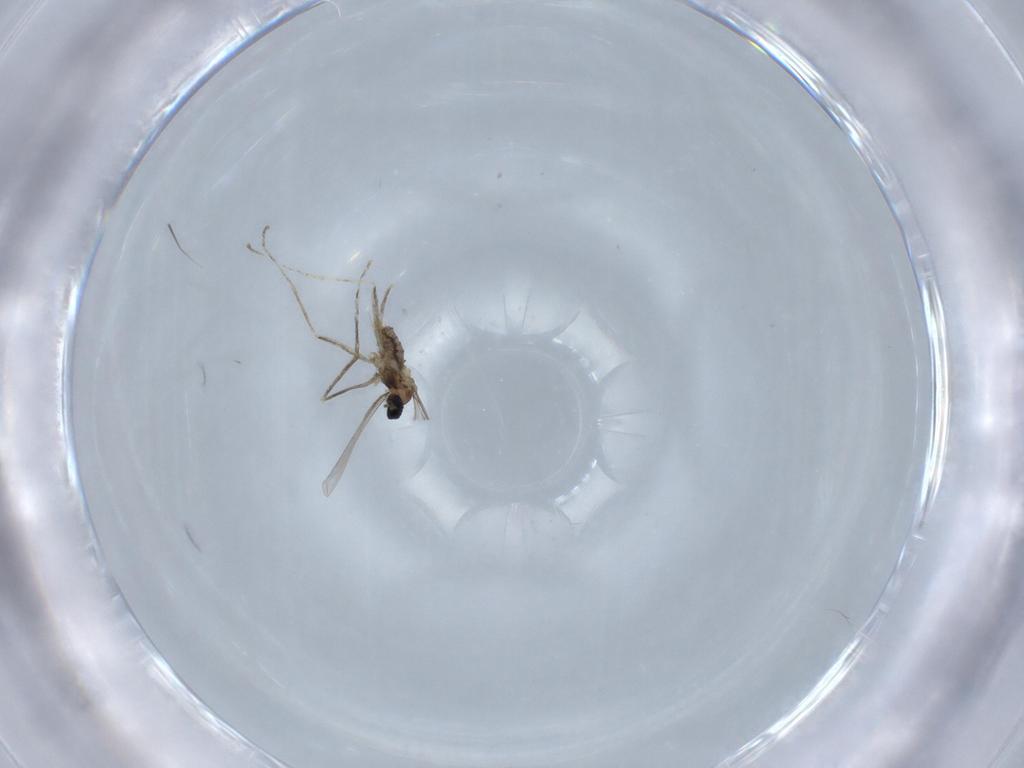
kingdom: Animalia
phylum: Arthropoda
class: Insecta
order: Diptera
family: Cecidomyiidae
